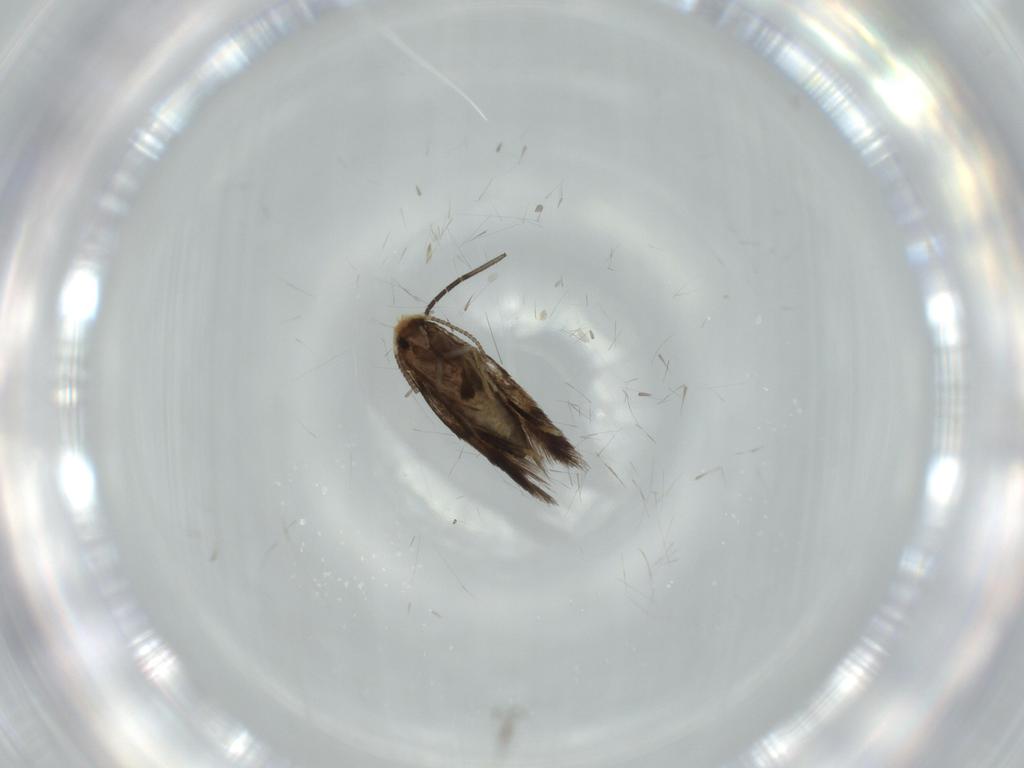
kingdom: Animalia
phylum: Arthropoda
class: Insecta
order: Lepidoptera
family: Nepticulidae
